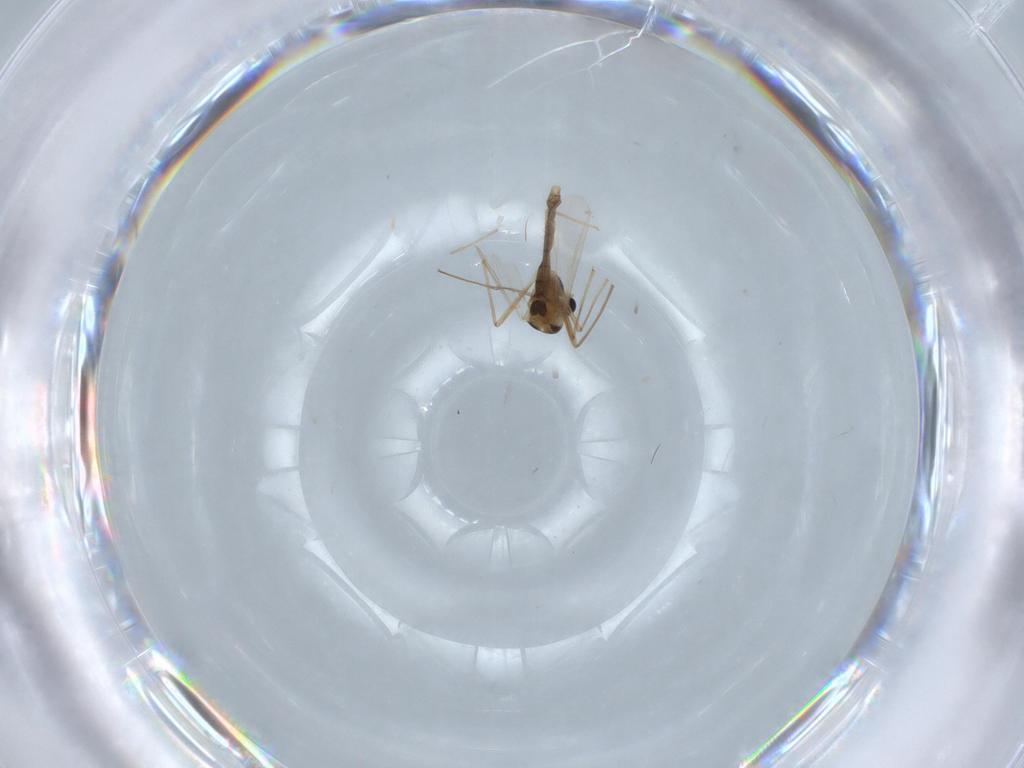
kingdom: Animalia
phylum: Arthropoda
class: Insecta
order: Diptera
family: Chironomidae
